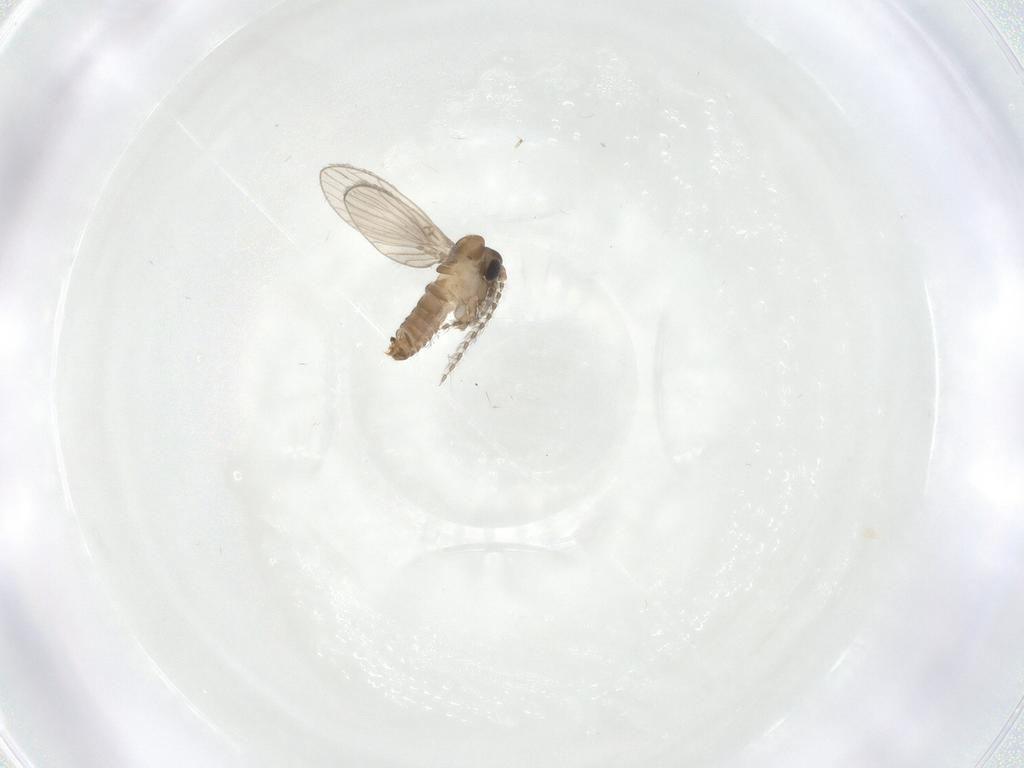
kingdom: Animalia
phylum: Arthropoda
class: Insecta
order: Diptera
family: Psychodidae
